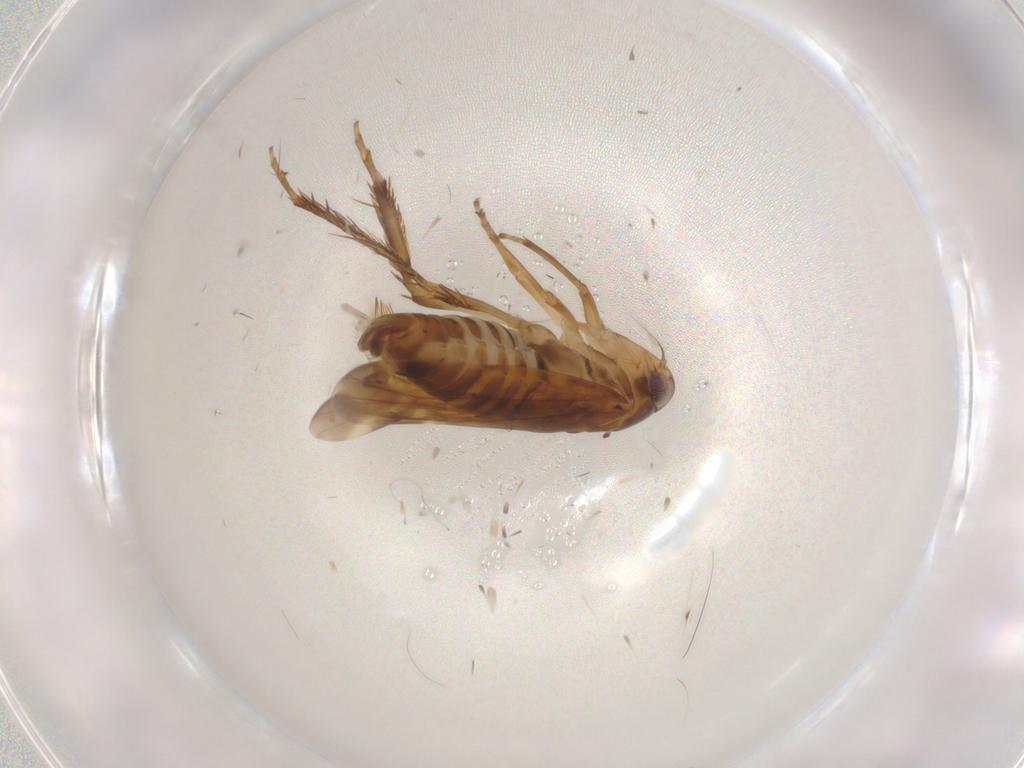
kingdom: Animalia
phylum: Arthropoda
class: Insecta
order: Hemiptera
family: Cicadellidae
